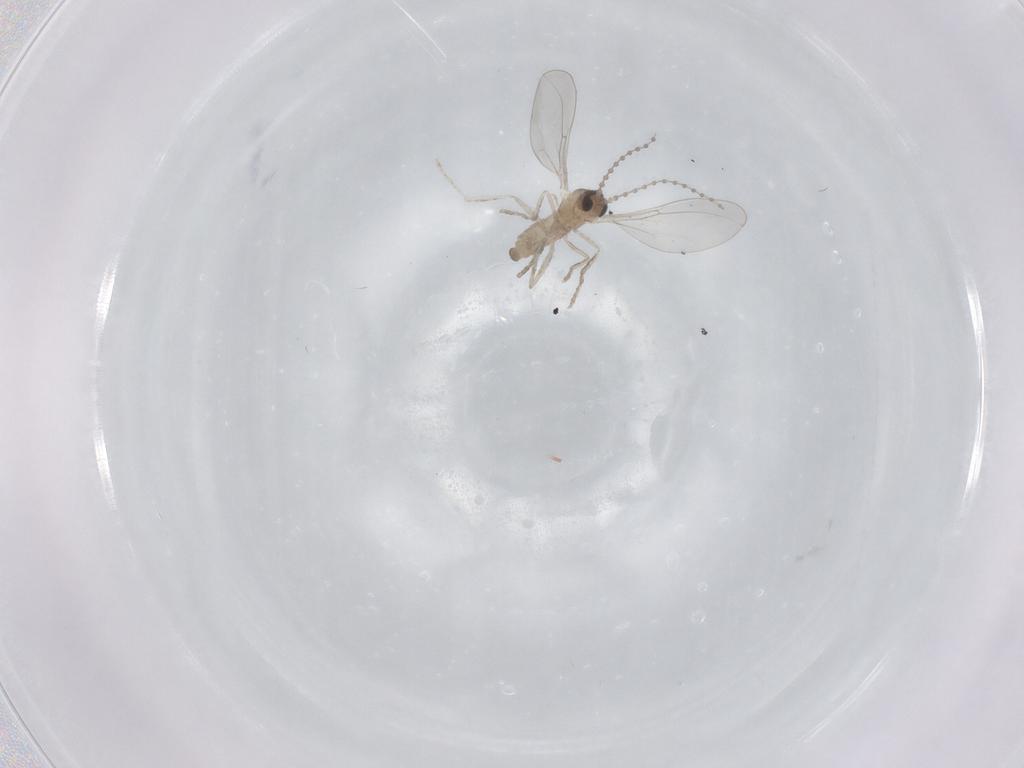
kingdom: Animalia
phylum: Arthropoda
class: Insecta
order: Diptera
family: Cecidomyiidae
